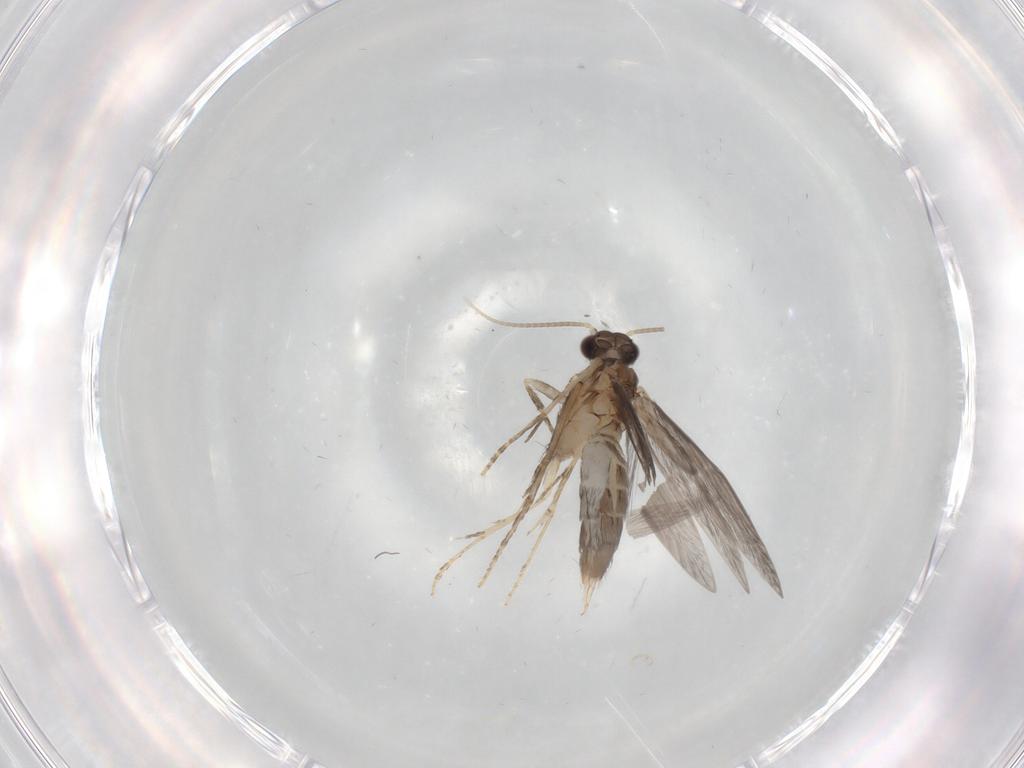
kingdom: Animalia
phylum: Arthropoda
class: Insecta
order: Trichoptera
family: Hydroptilidae
